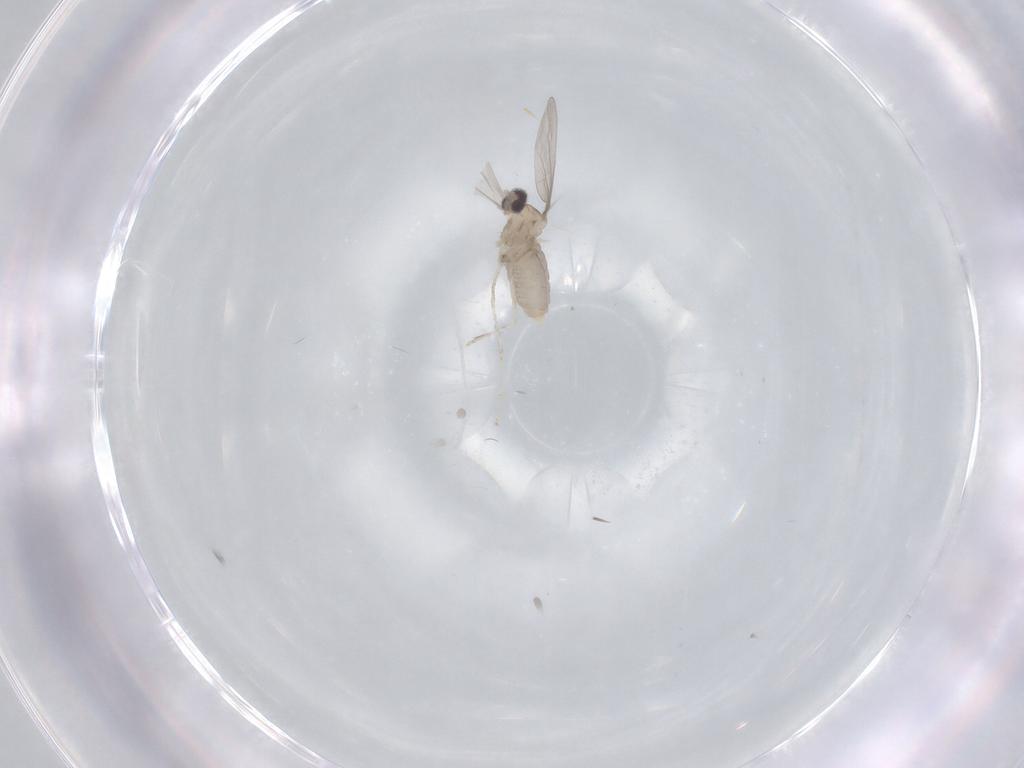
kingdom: Animalia
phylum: Arthropoda
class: Insecta
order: Diptera
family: Cecidomyiidae
